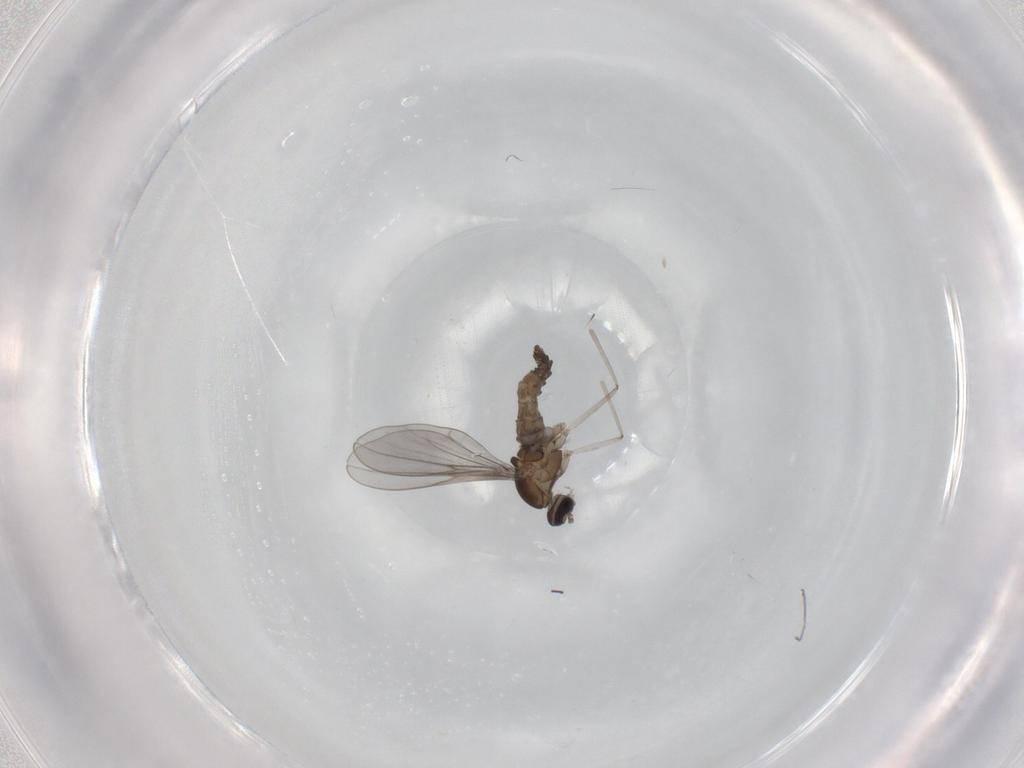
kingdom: Animalia
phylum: Arthropoda
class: Insecta
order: Diptera
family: Cecidomyiidae
